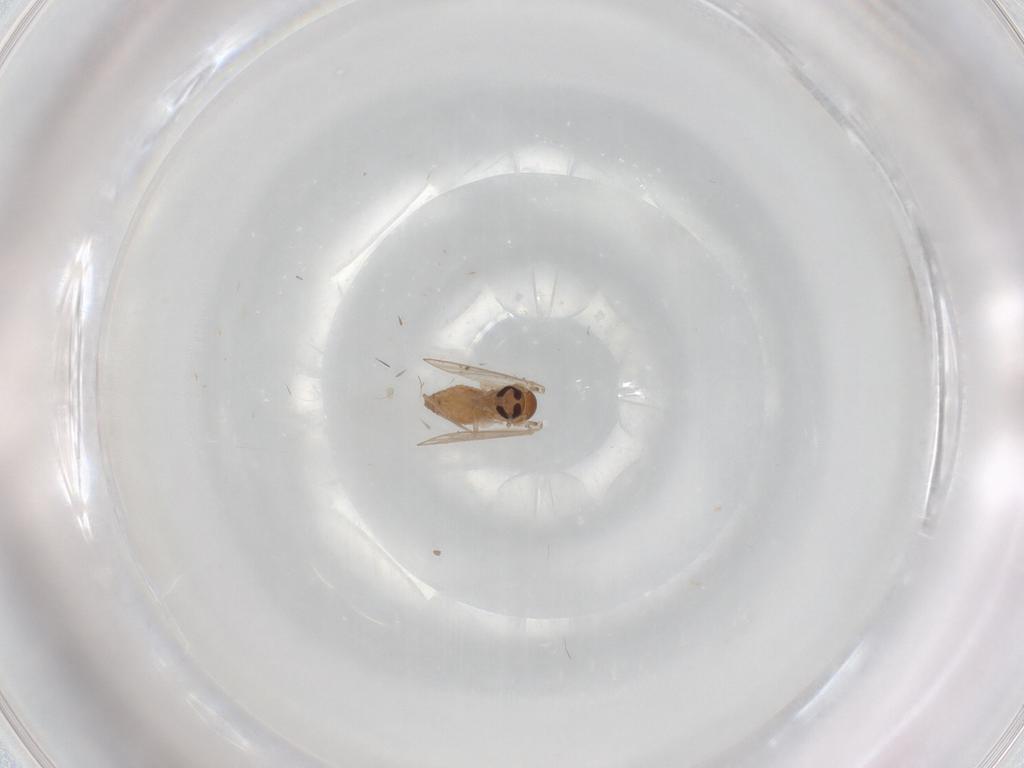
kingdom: Animalia
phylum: Arthropoda
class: Insecta
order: Diptera
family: Psychodidae
